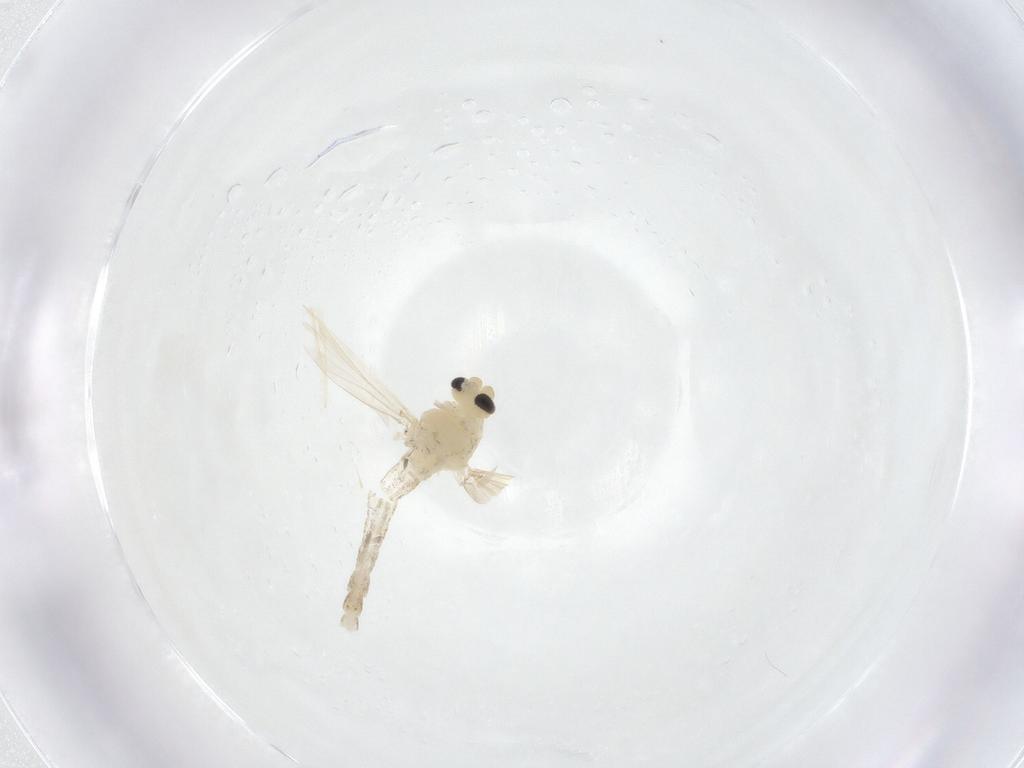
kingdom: Animalia
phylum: Arthropoda
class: Insecta
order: Diptera
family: Chironomidae
